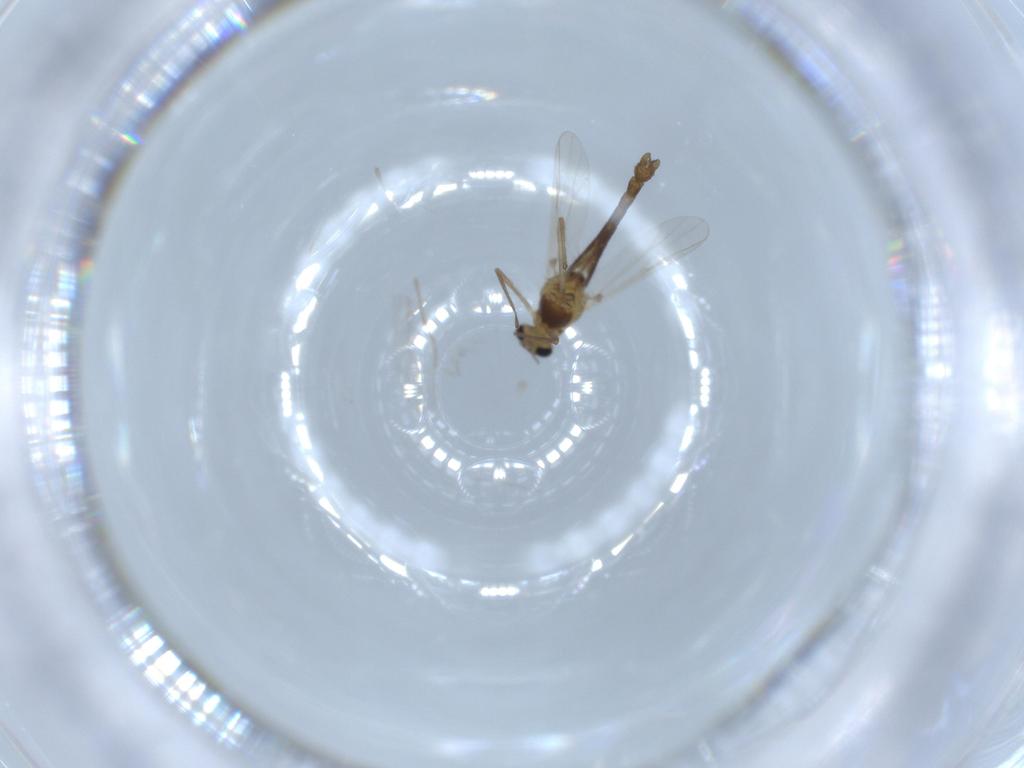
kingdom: Animalia
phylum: Arthropoda
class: Insecta
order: Diptera
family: Chironomidae
